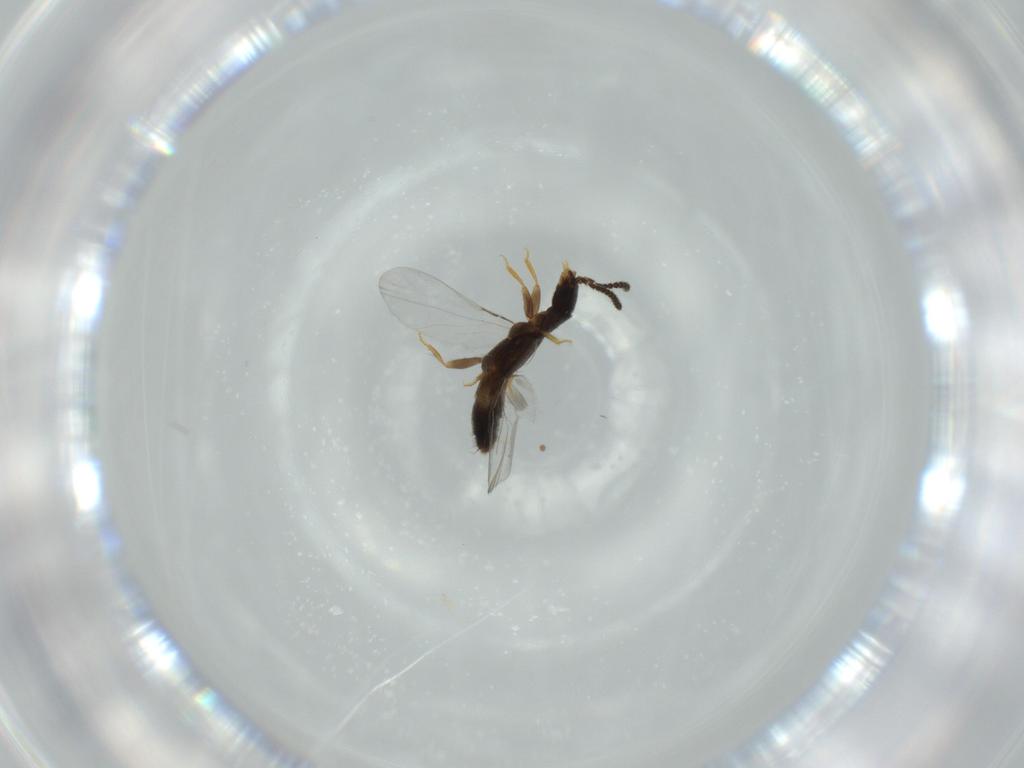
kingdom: Animalia
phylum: Arthropoda
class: Insecta
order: Coleoptera
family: Staphylinidae
